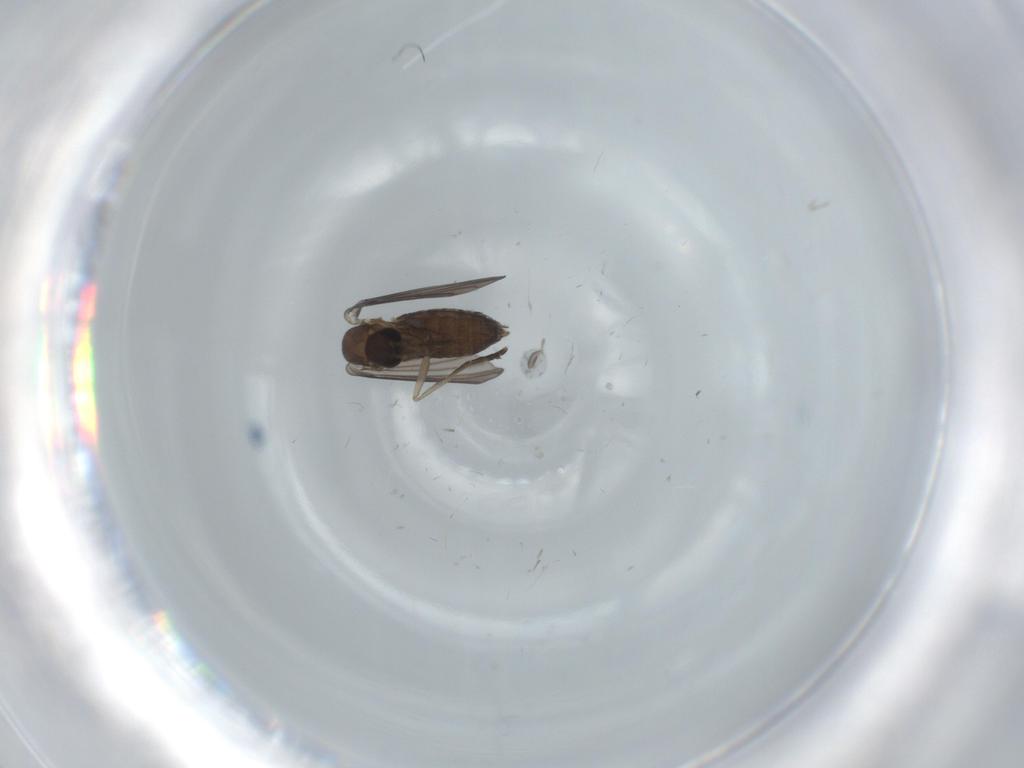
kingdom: Animalia
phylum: Arthropoda
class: Insecta
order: Diptera
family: Psychodidae
